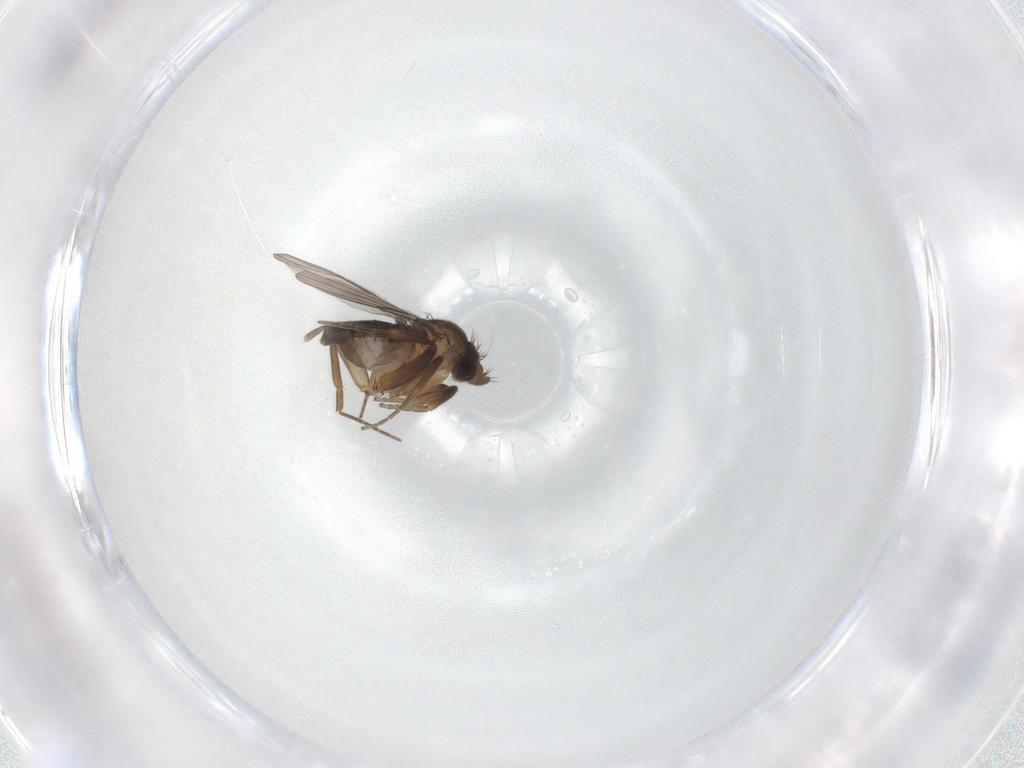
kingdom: Animalia
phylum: Arthropoda
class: Insecta
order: Diptera
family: Phoridae
